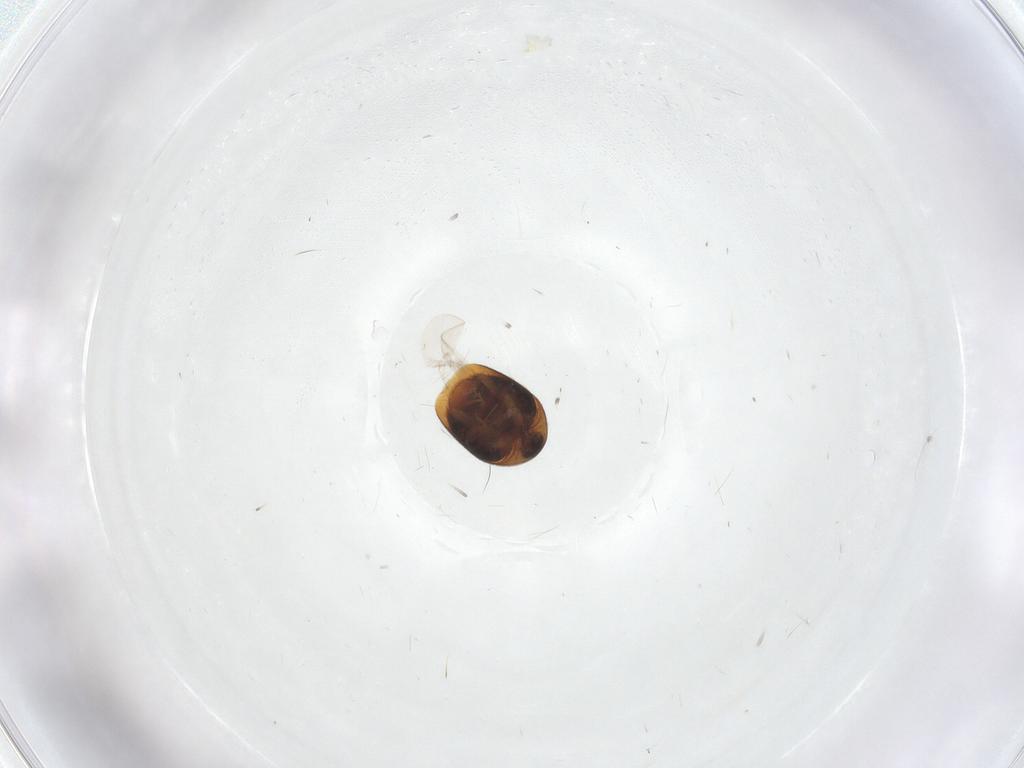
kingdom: Animalia
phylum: Arthropoda
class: Insecta
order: Coleoptera
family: Corylophidae
